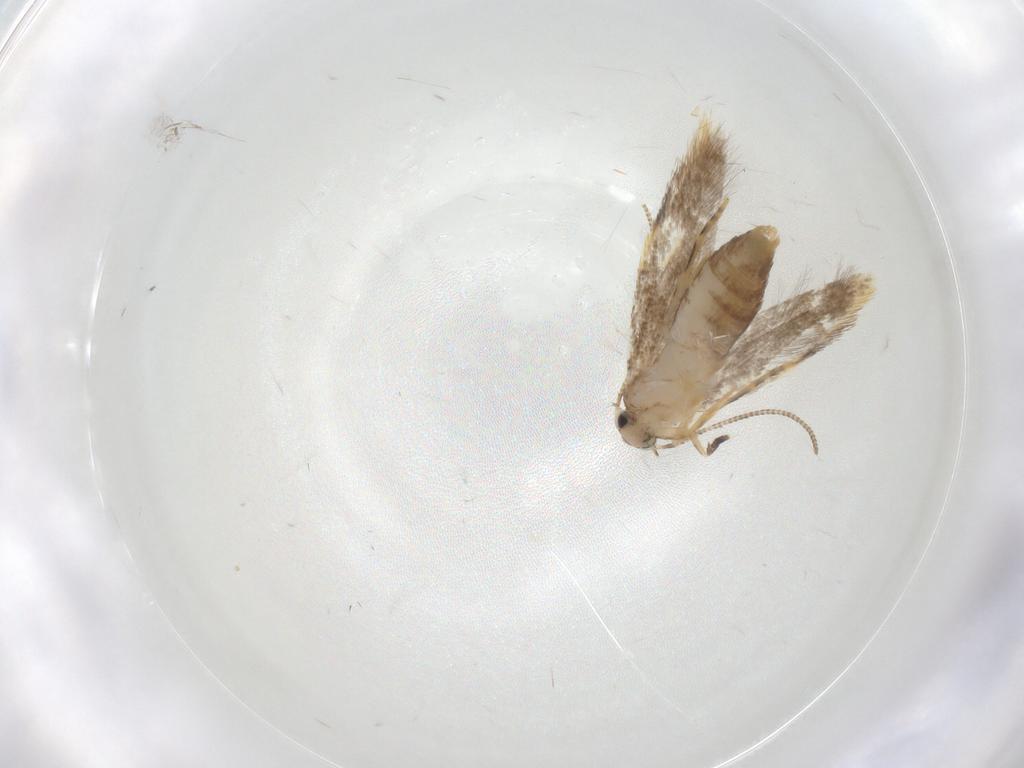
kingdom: Animalia
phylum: Arthropoda
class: Insecta
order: Lepidoptera
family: Tineidae
